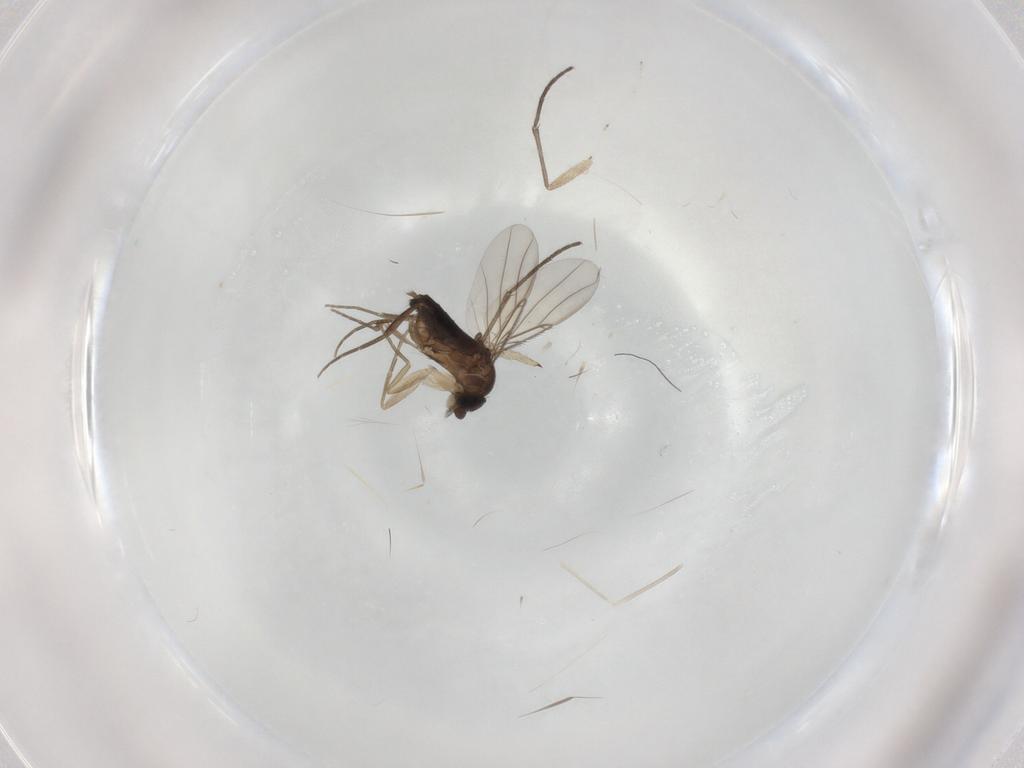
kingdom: Animalia
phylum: Arthropoda
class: Insecta
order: Diptera
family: Sciaridae
